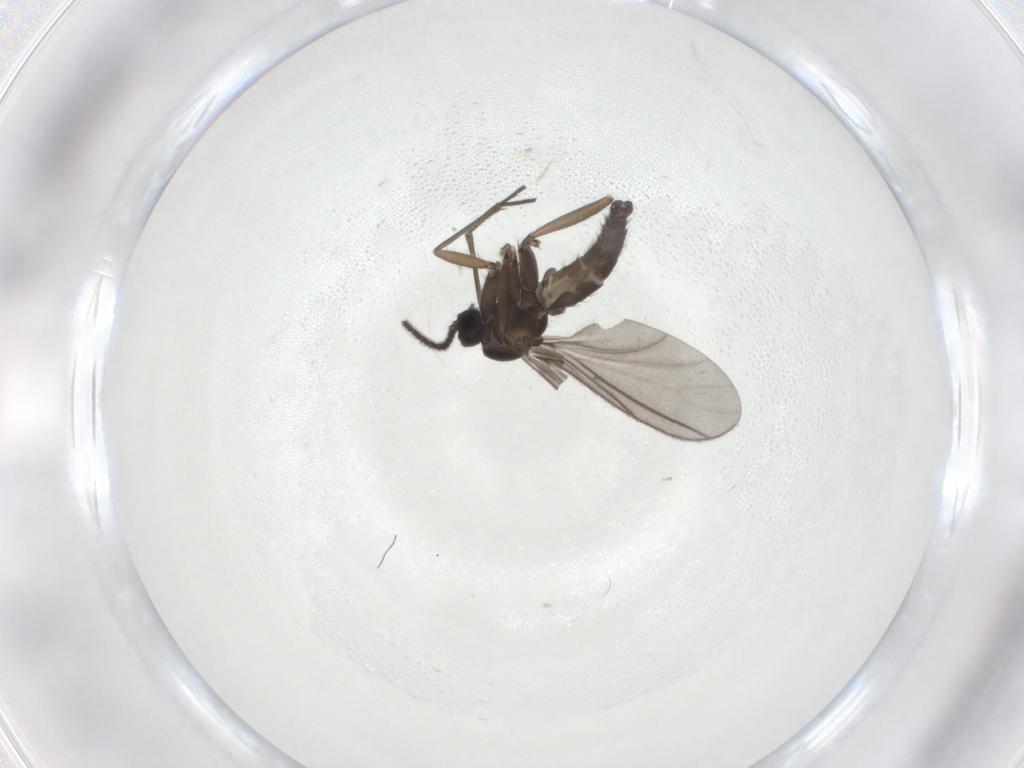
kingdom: Animalia
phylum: Arthropoda
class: Insecta
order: Diptera
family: Sciaridae
